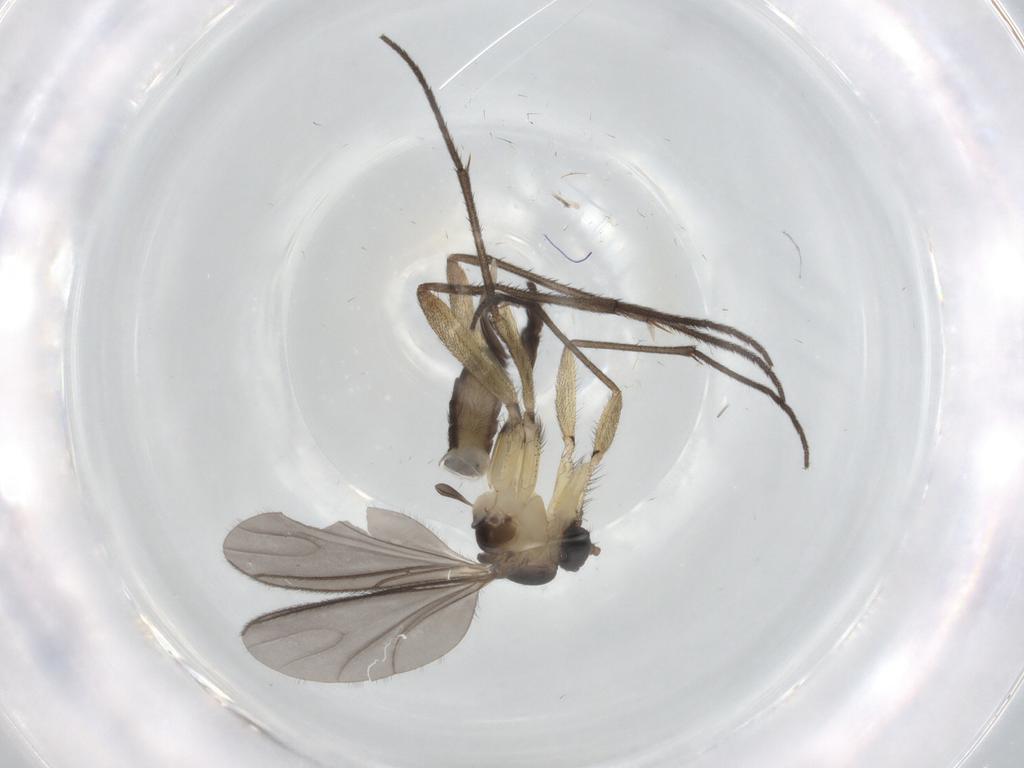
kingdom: Animalia
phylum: Arthropoda
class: Insecta
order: Diptera
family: Sciaridae
